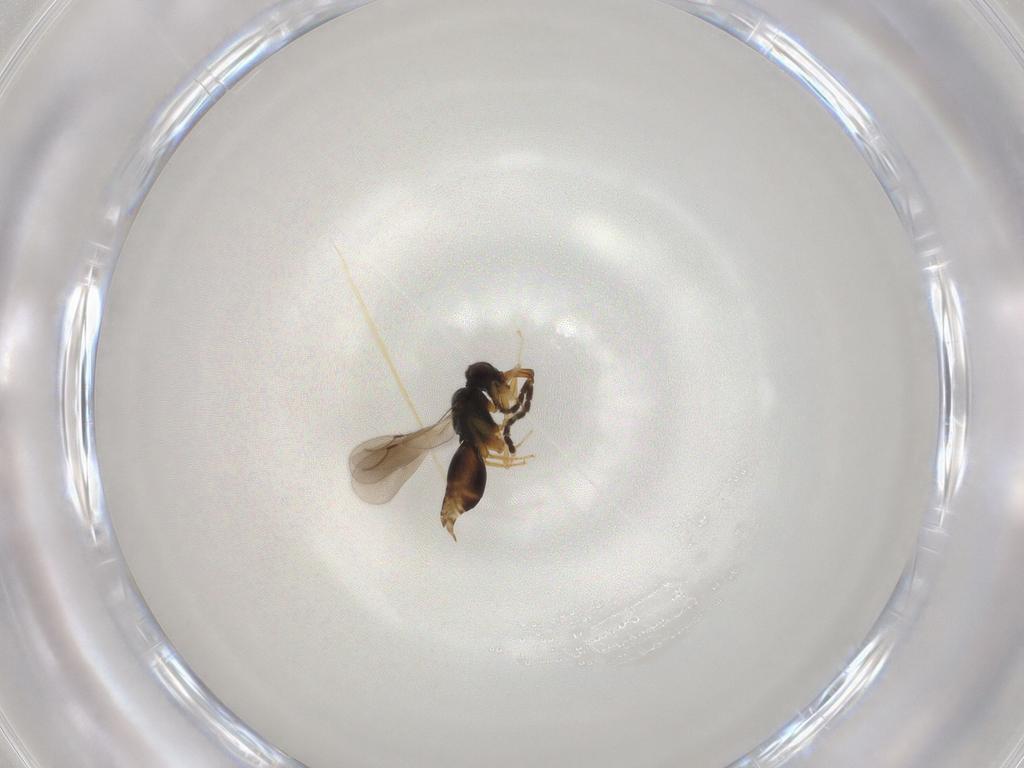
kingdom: Animalia
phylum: Arthropoda
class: Insecta
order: Hymenoptera
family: Ceraphronidae
